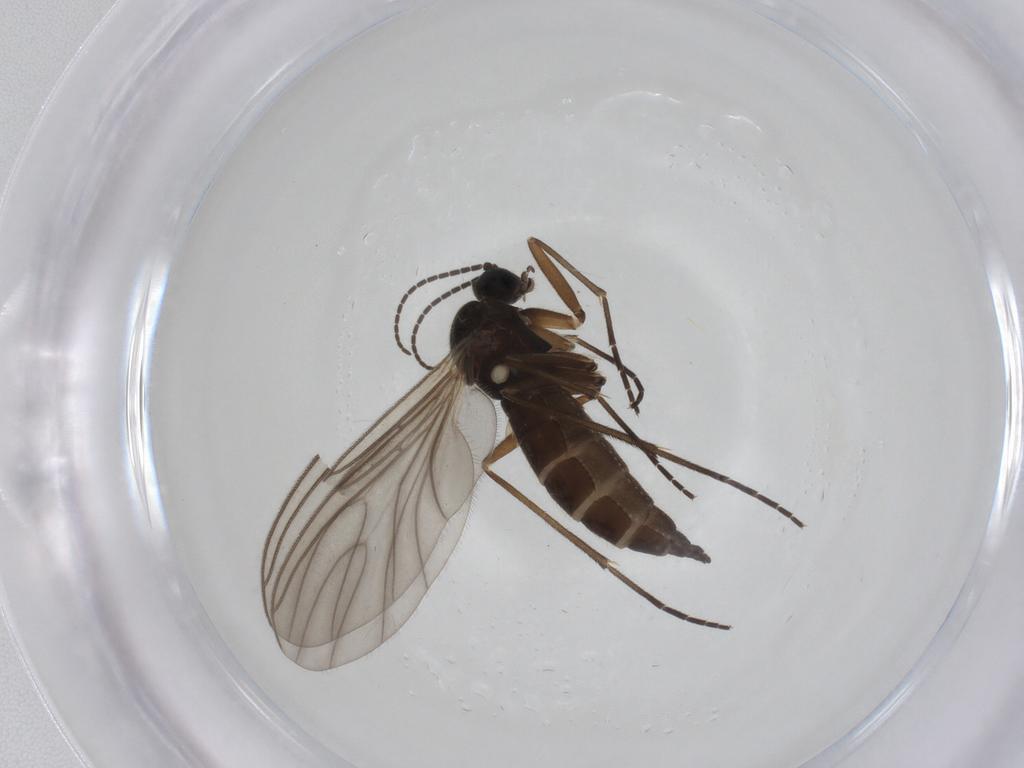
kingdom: Animalia
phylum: Arthropoda
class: Insecta
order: Diptera
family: Sciaridae
